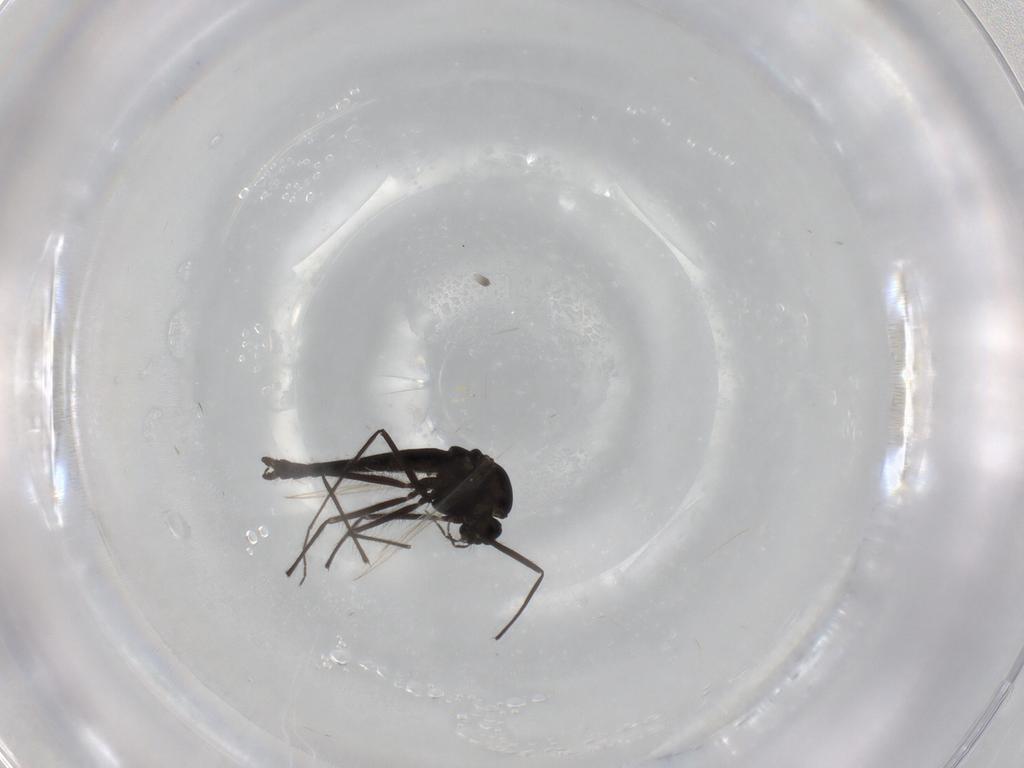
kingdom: Animalia
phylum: Arthropoda
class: Insecta
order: Diptera
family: Chironomidae
